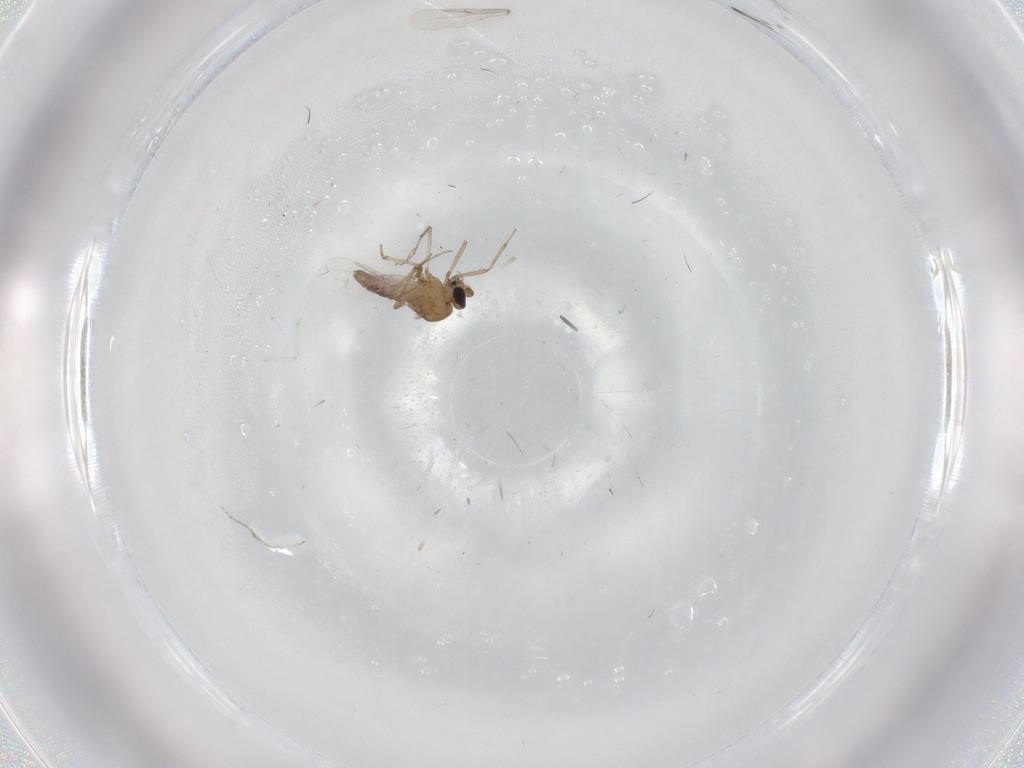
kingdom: Animalia
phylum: Arthropoda
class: Insecta
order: Diptera
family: Ceratopogonidae
